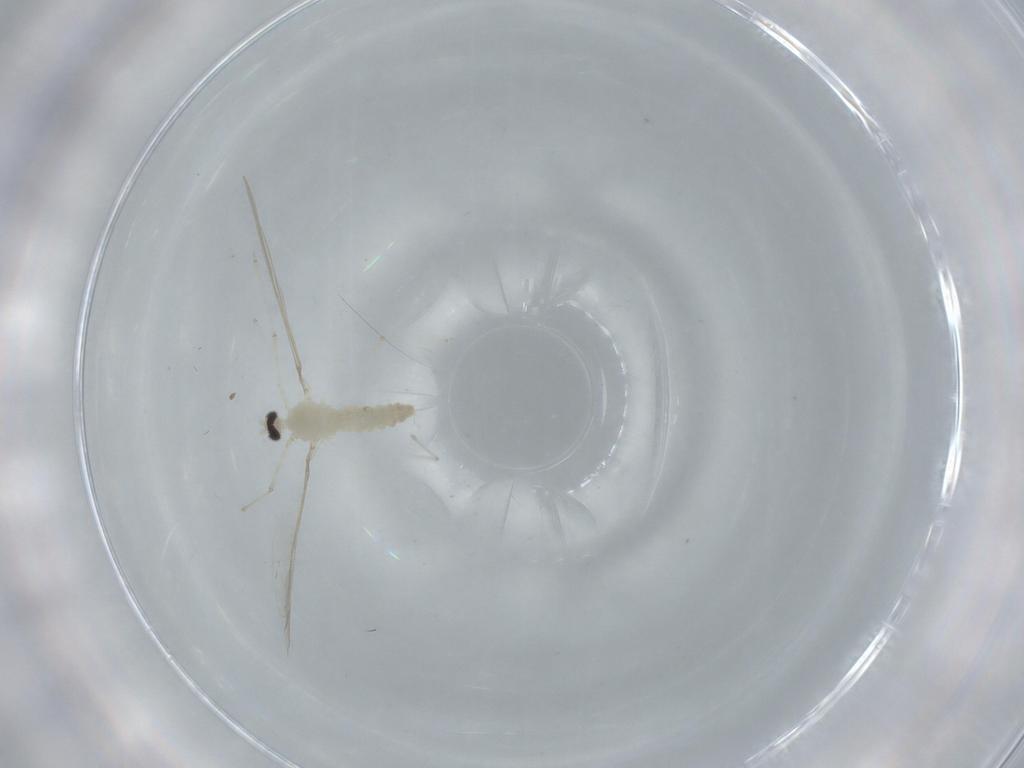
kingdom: Animalia
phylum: Arthropoda
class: Insecta
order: Diptera
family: Cecidomyiidae
